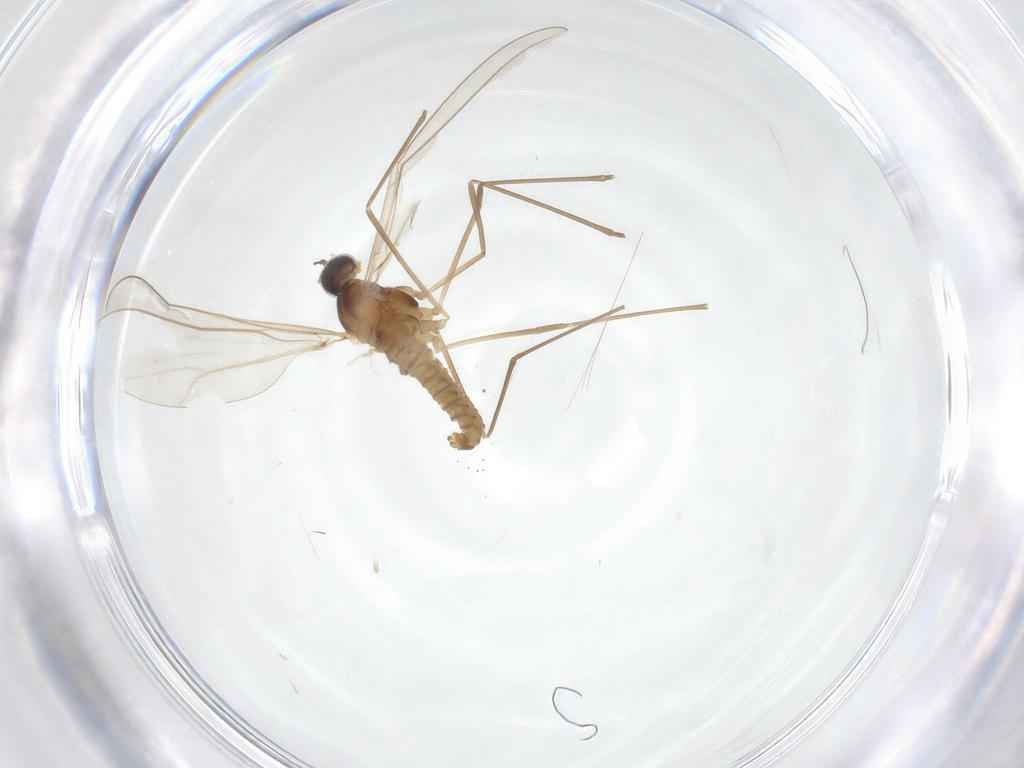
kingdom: Animalia
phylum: Arthropoda
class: Insecta
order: Diptera
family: Cecidomyiidae
